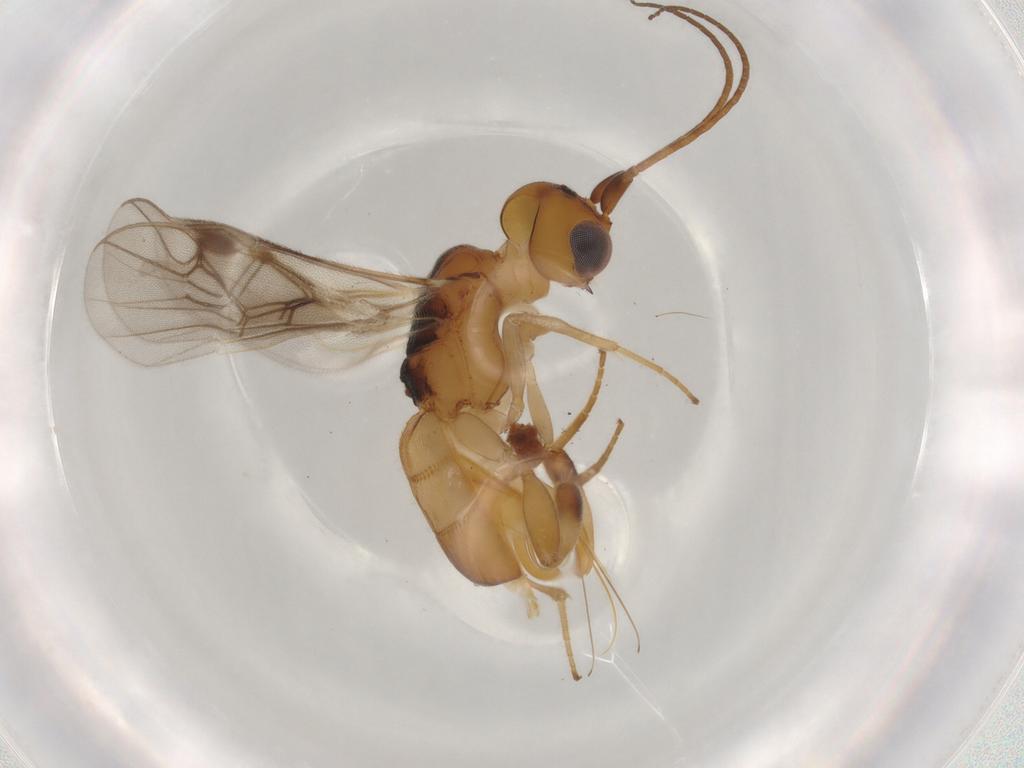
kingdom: Animalia
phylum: Arthropoda
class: Insecta
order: Hymenoptera
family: Braconidae
